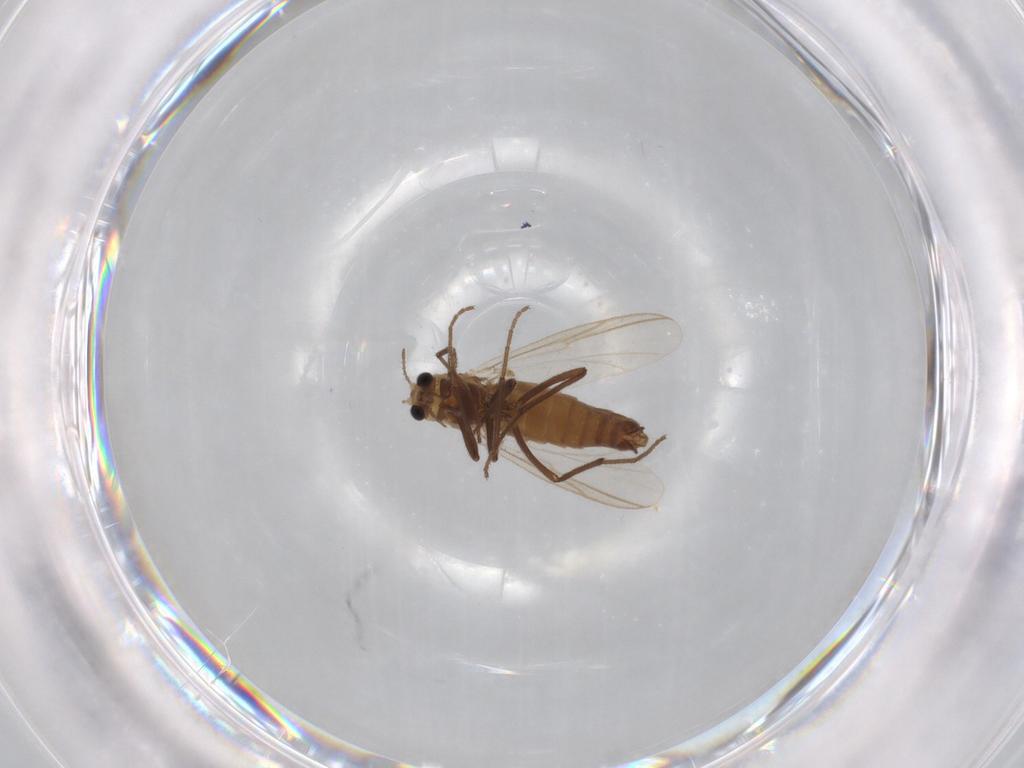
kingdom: Animalia
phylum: Arthropoda
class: Insecta
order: Diptera
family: Chironomidae
